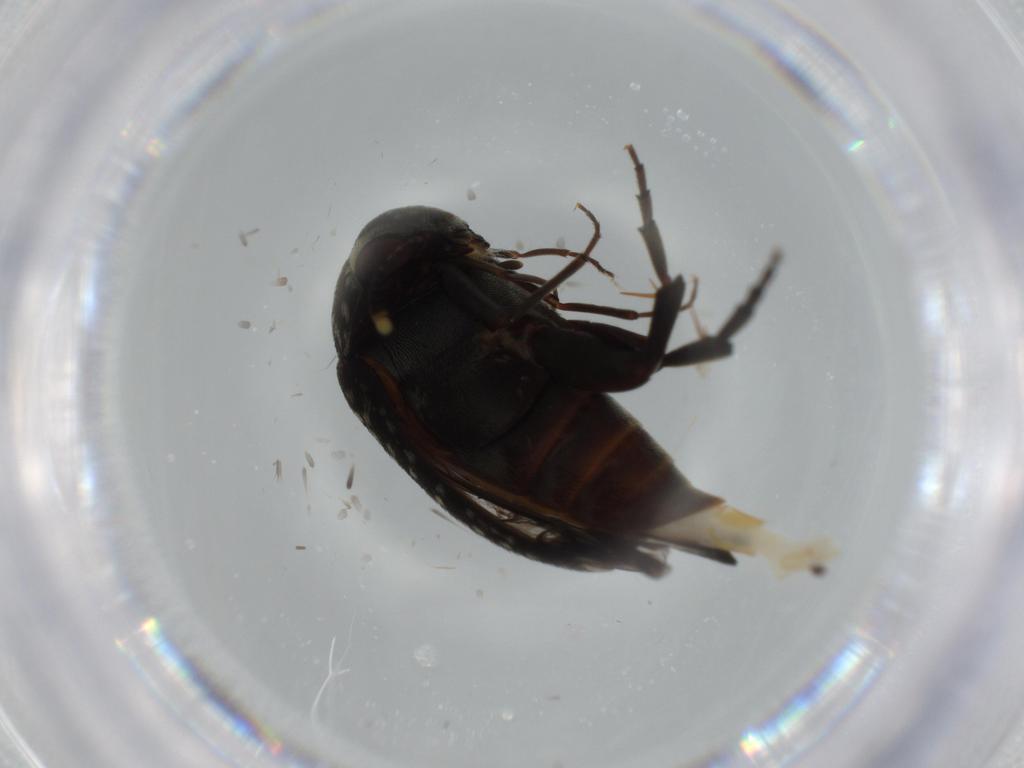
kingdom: Animalia
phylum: Arthropoda
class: Insecta
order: Coleoptera
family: Mordellidae
